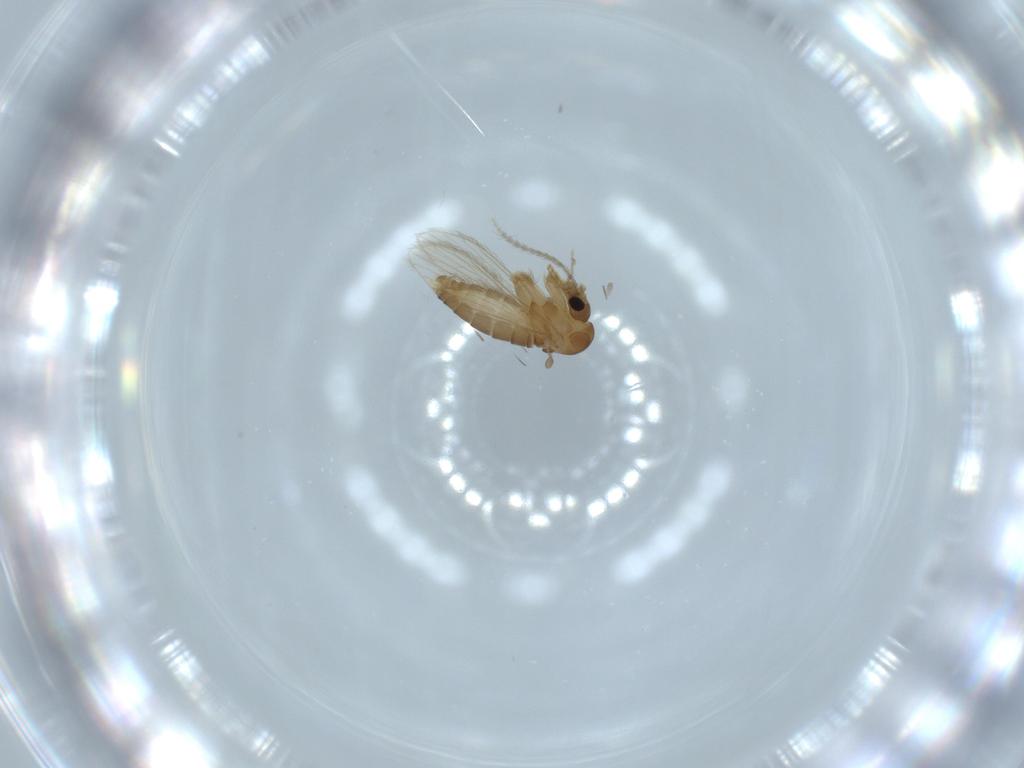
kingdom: Animalia
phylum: Arthropoda
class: Insecta
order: Diptera
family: Psychodidae
